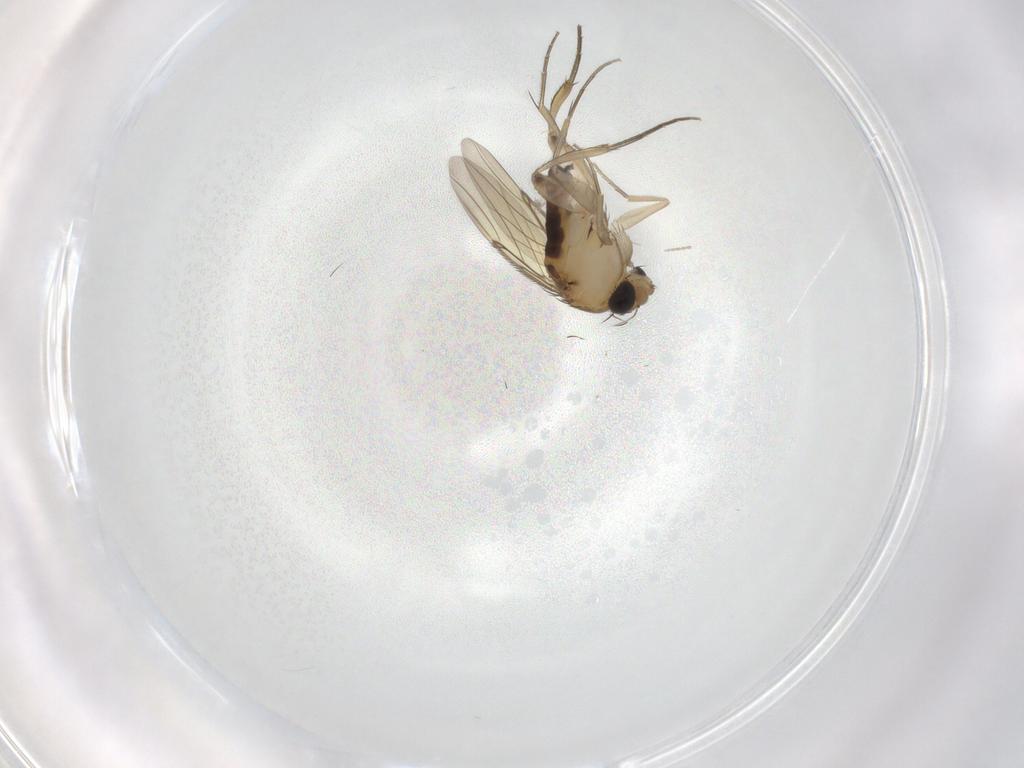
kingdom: Animalia
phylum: Arthropoda
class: Insecta
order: Diptera
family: Phoridae
